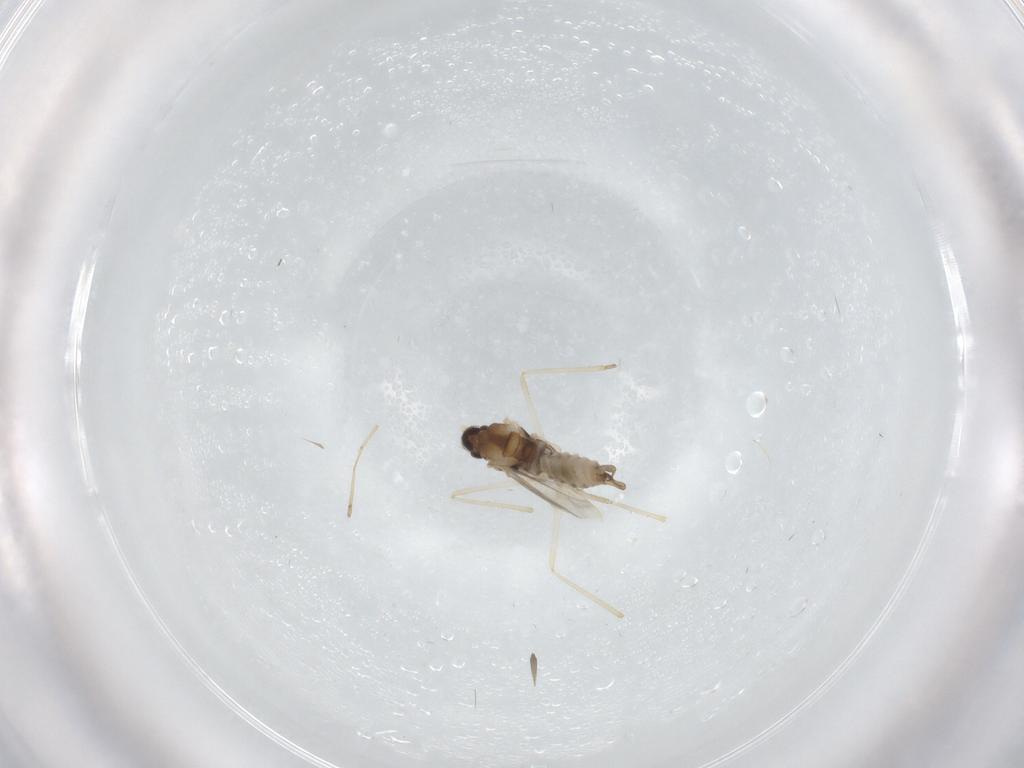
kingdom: Animalia
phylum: Arthropoda
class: Insecta
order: Diptera
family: Cecidomyiidae
